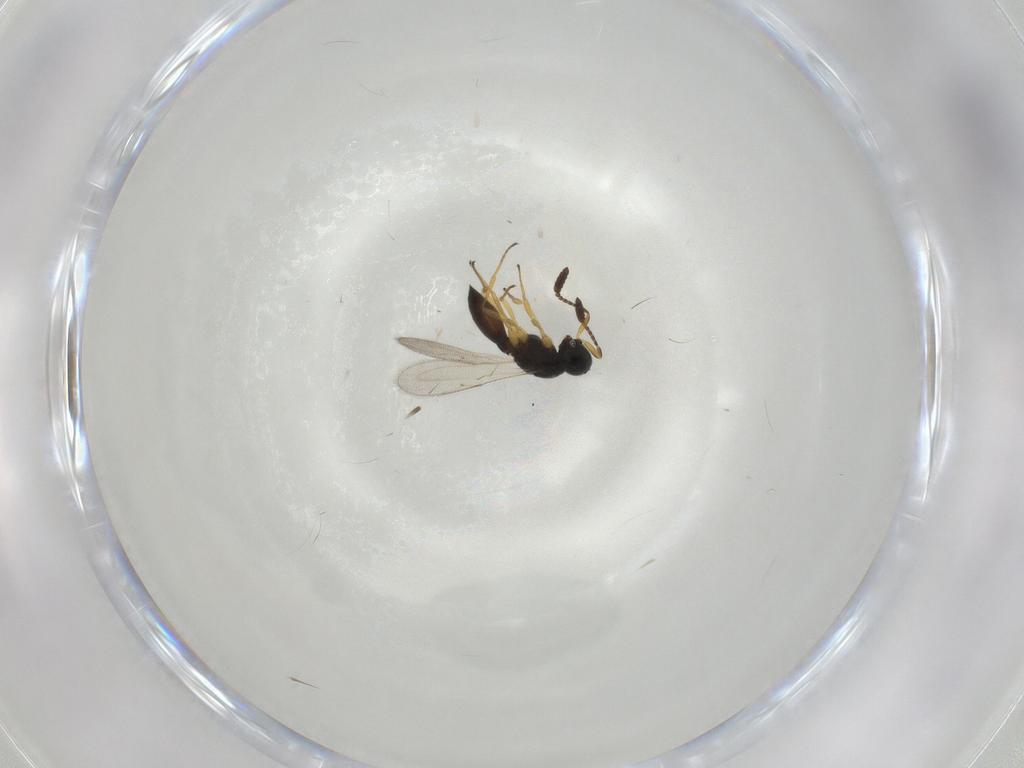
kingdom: Animalia
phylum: Arthropoda
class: Insecta
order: Hymenoptera
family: Scelionidae
